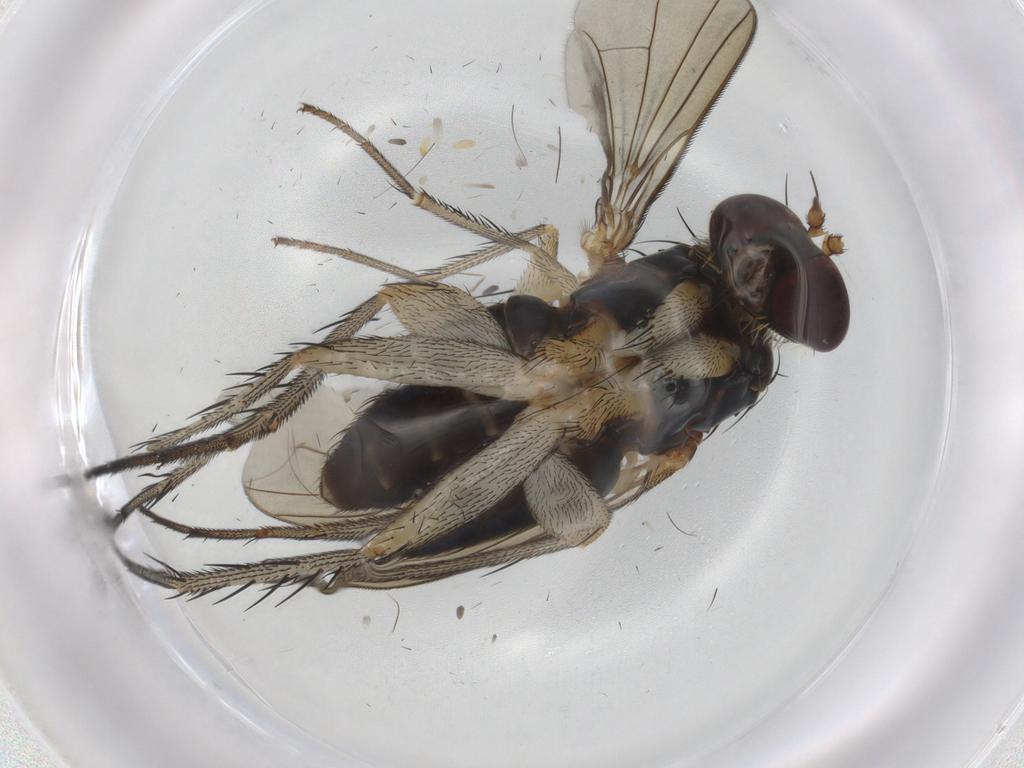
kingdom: Animalia
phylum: Arthropoda
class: Insecta
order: Diptera
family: Dolichopodidae
